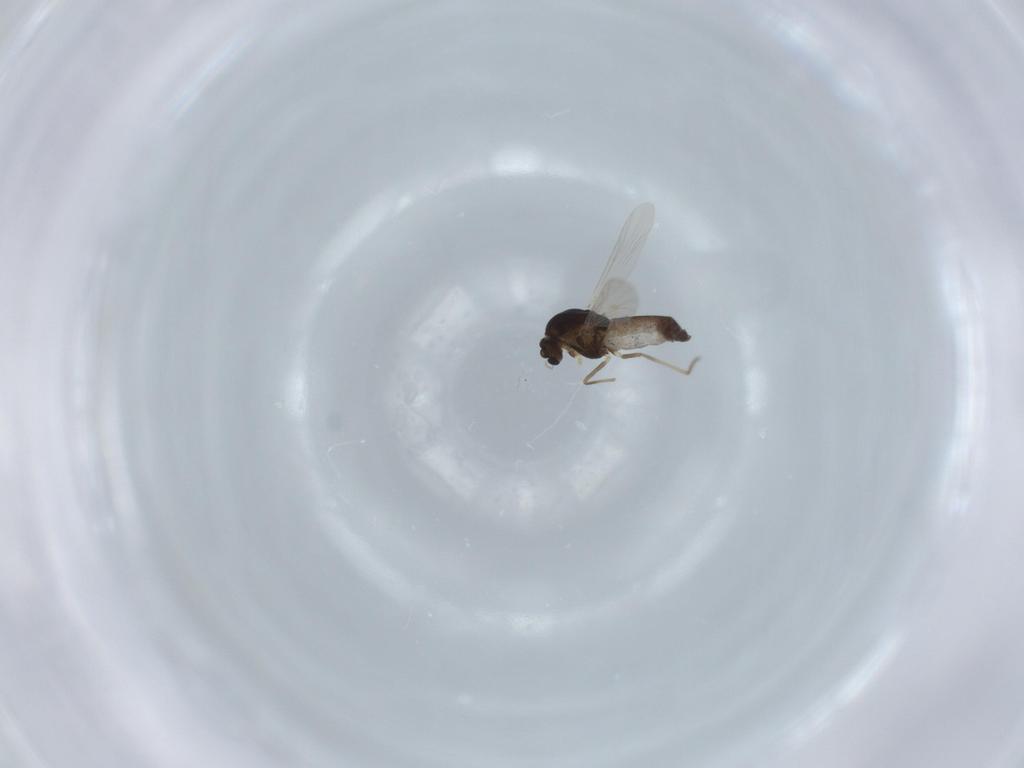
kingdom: Animalia
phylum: Arthropoda
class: Insecta
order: Diptera
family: Chironomidae
